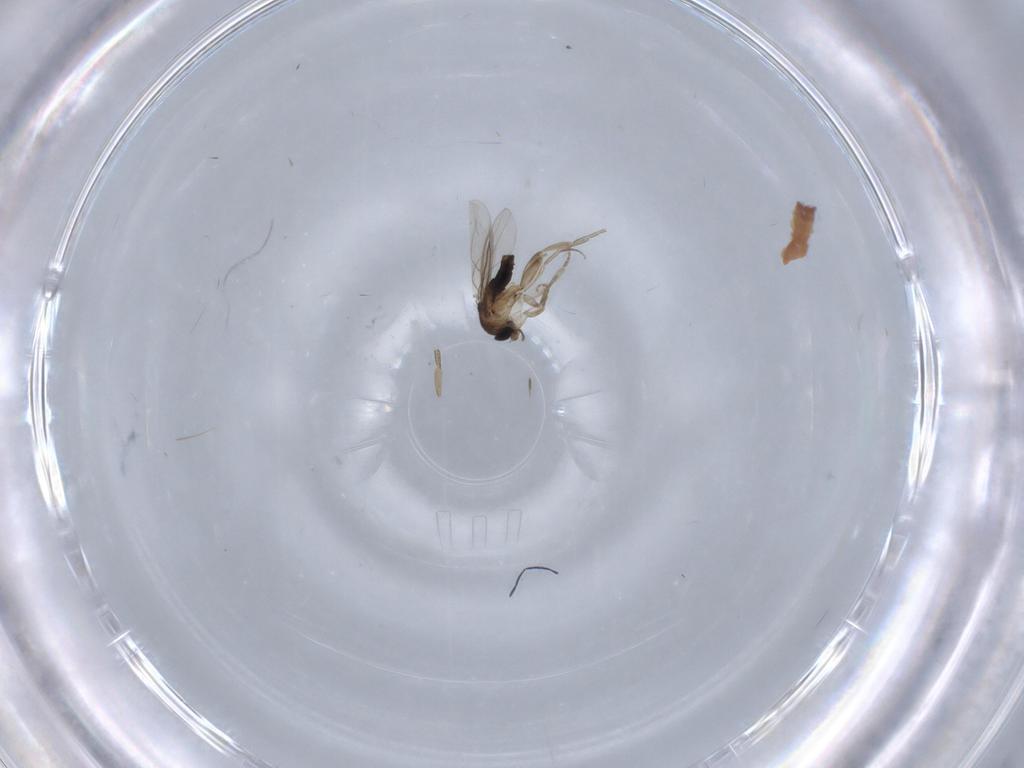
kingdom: Animalia
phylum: Arthropoda
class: Insecta
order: Diptera
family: Phoridae
